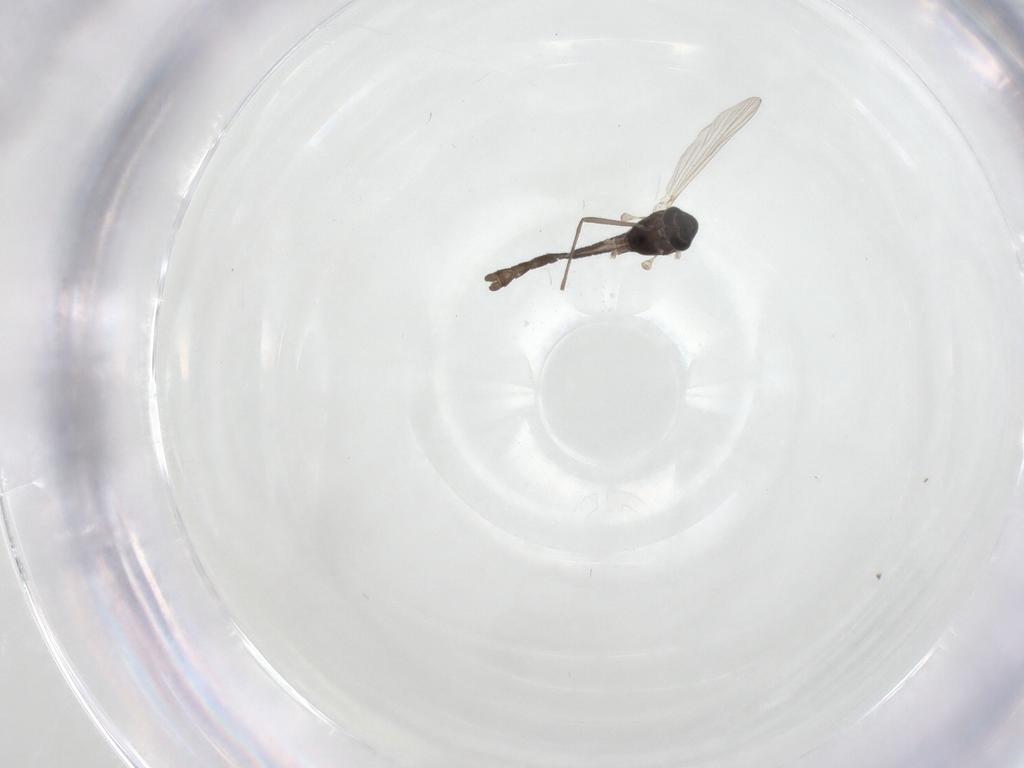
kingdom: Animalia
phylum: Arthropoda
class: Insecta
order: Diptera
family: Chironomidae
